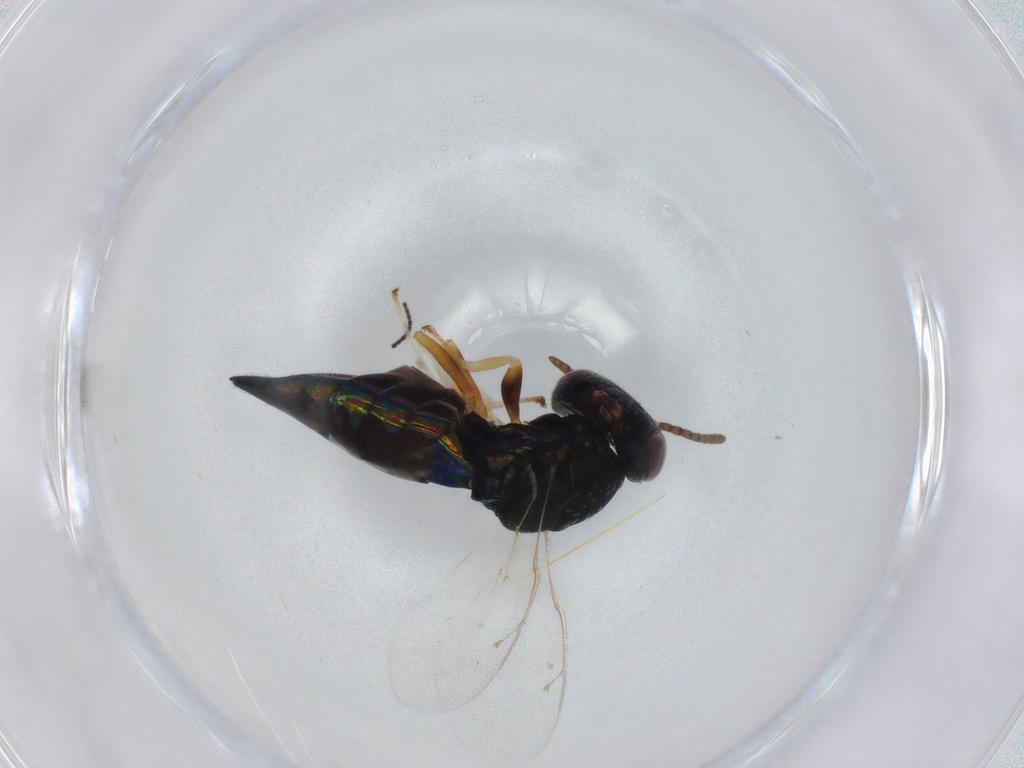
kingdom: Animalia
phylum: Arthropoda
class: Insecta
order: Hymenoptera
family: Pteromalidae
